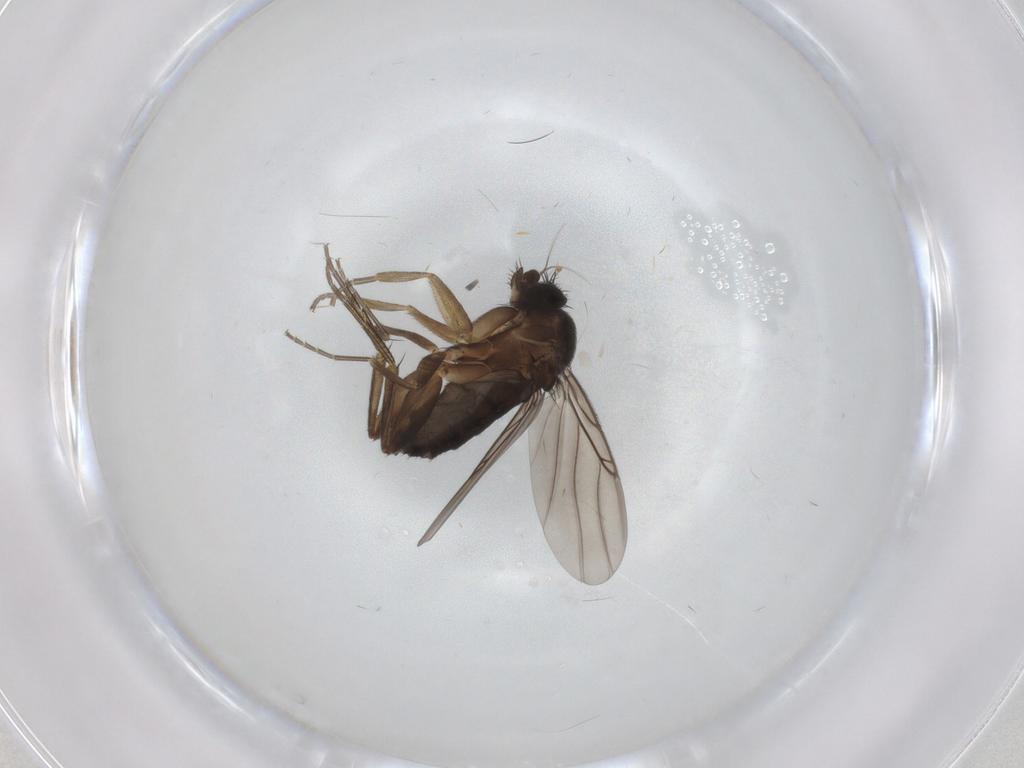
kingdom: Animalia
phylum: Arthropoda
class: Insecta
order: Diptera
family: Phoridae
